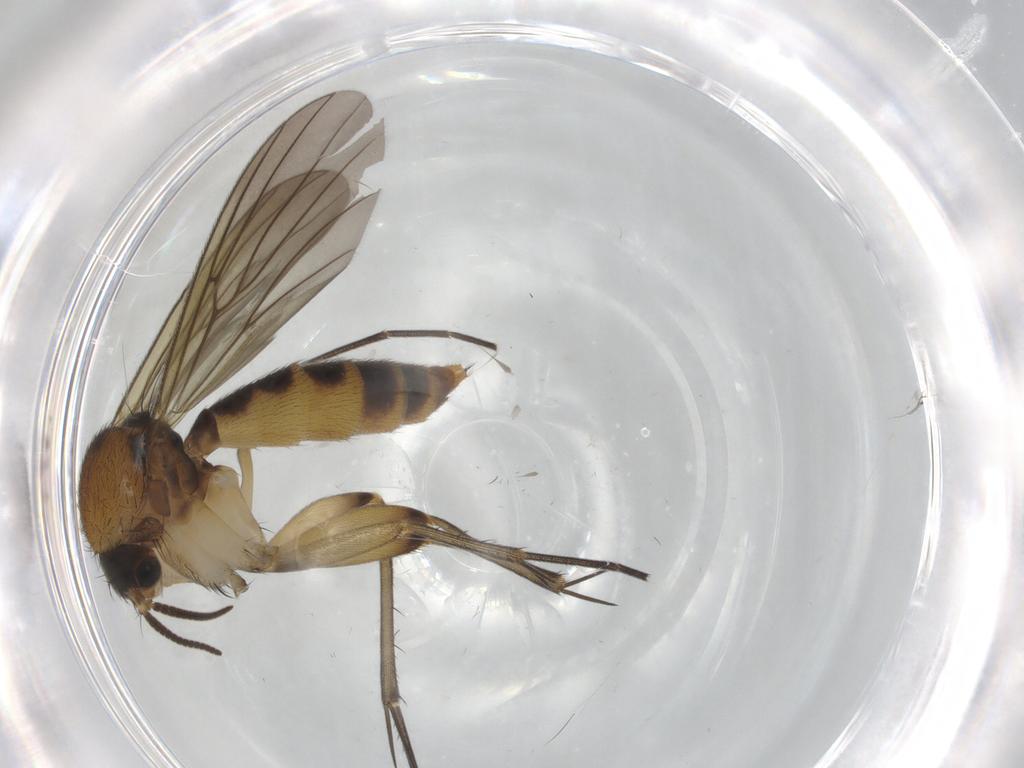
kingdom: Animalia
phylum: Arthropoda
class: Insecta
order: Diptera
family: Mycetophilidae
